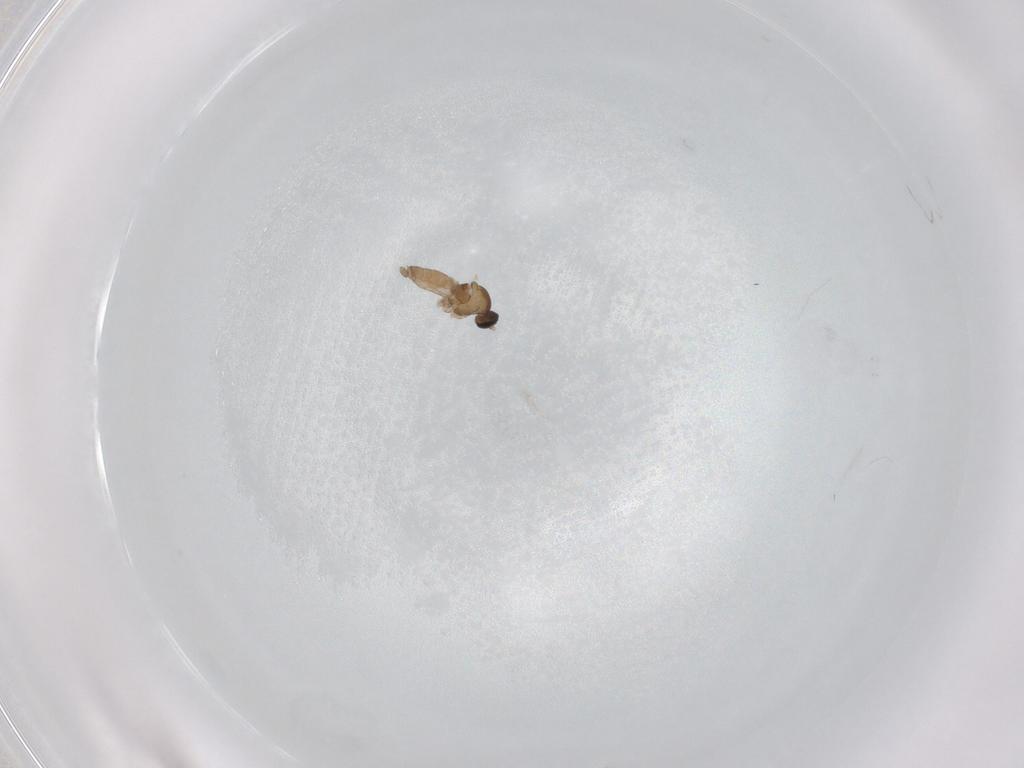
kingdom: Animalia
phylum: Arthropoda
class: Insecta
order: Diptera
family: Cecidomyiidae
